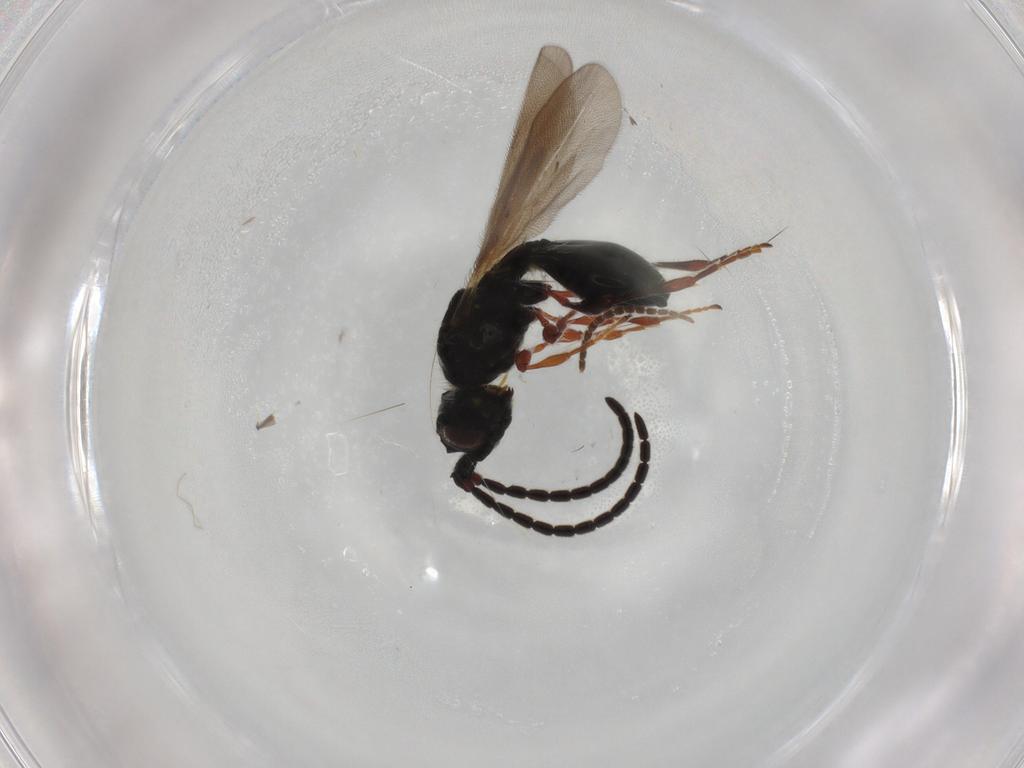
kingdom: Animalia
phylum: Arthropoda
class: Insecta
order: Hymenoptera
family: Diapriidae
